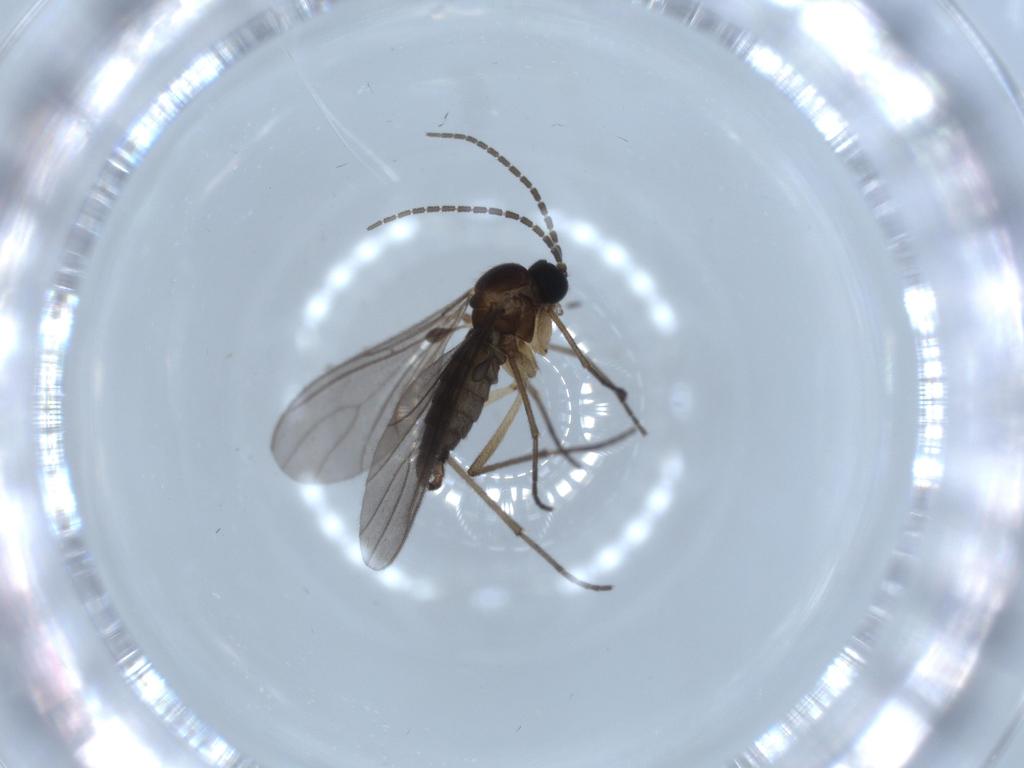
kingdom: Animalia
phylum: Arthropoda
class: Insecta
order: Diptera
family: Sciaridae
